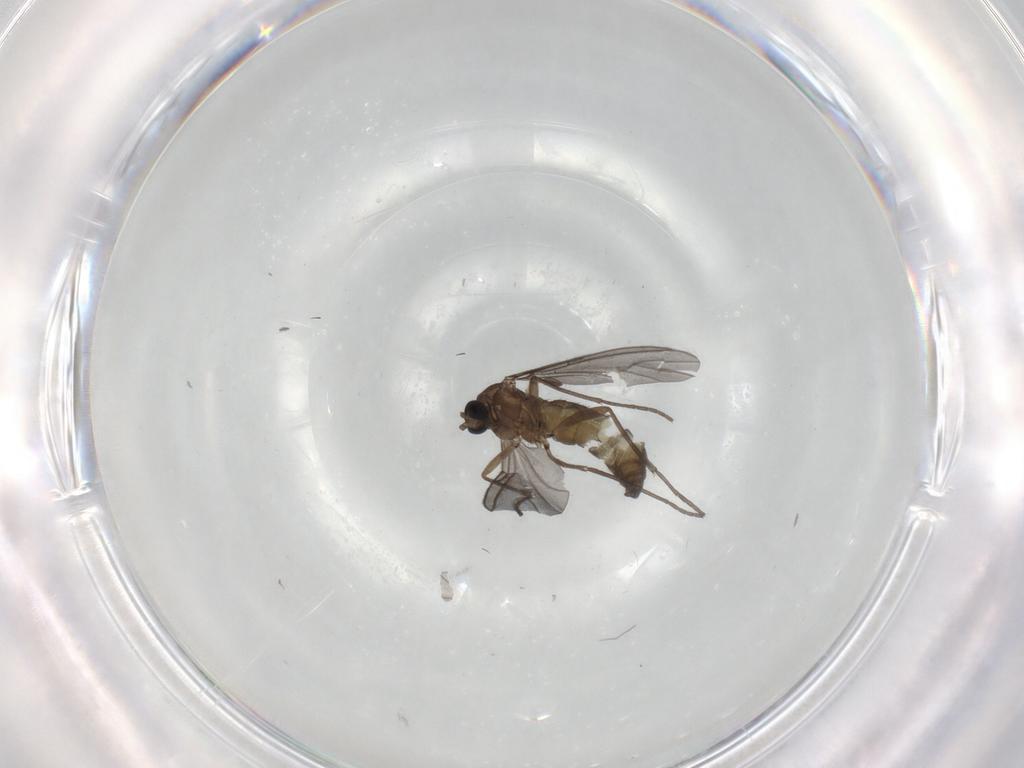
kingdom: Animalia
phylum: Arthropoda
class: Insecta
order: Diptera
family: Sciaridae
